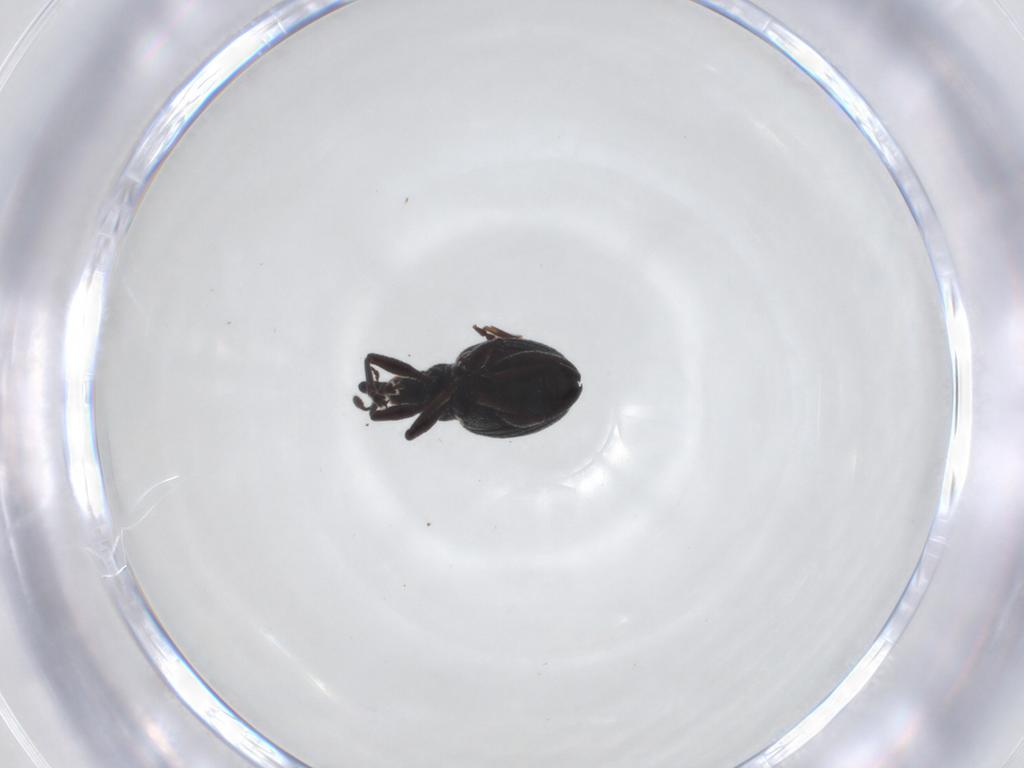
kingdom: Animalia
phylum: Arthropoda
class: Insecta
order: Coleoptera
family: Brentidae
